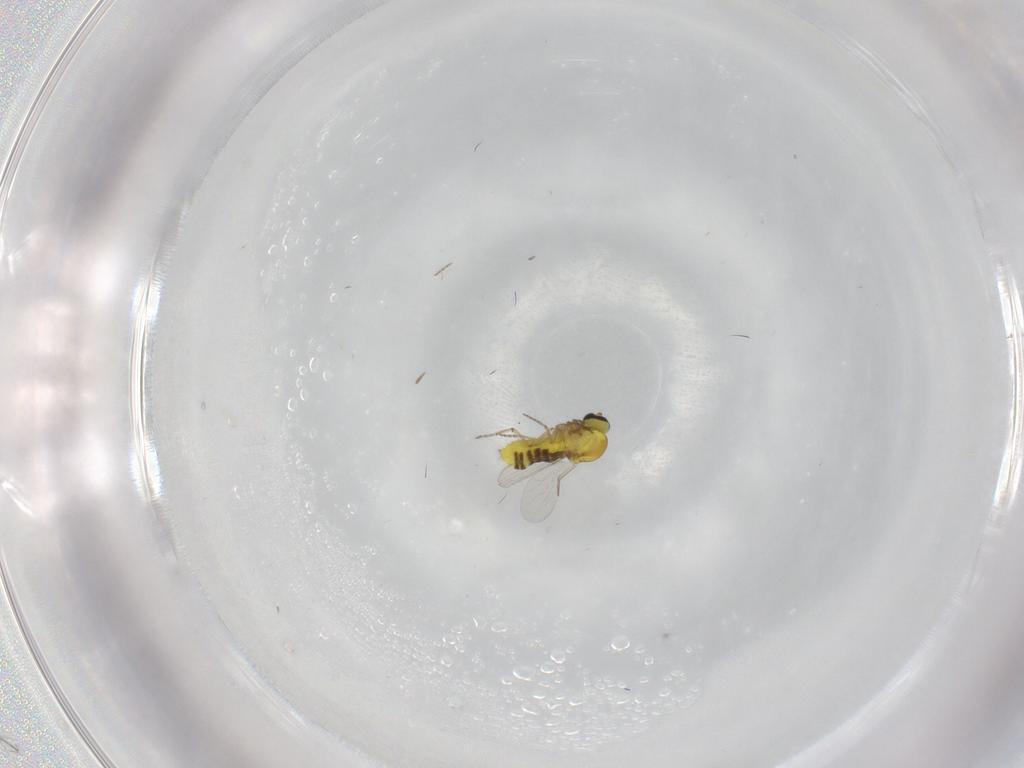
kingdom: Animalia
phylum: Arthropoda
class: Insecta
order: Diptera
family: Ceratopogonidae
